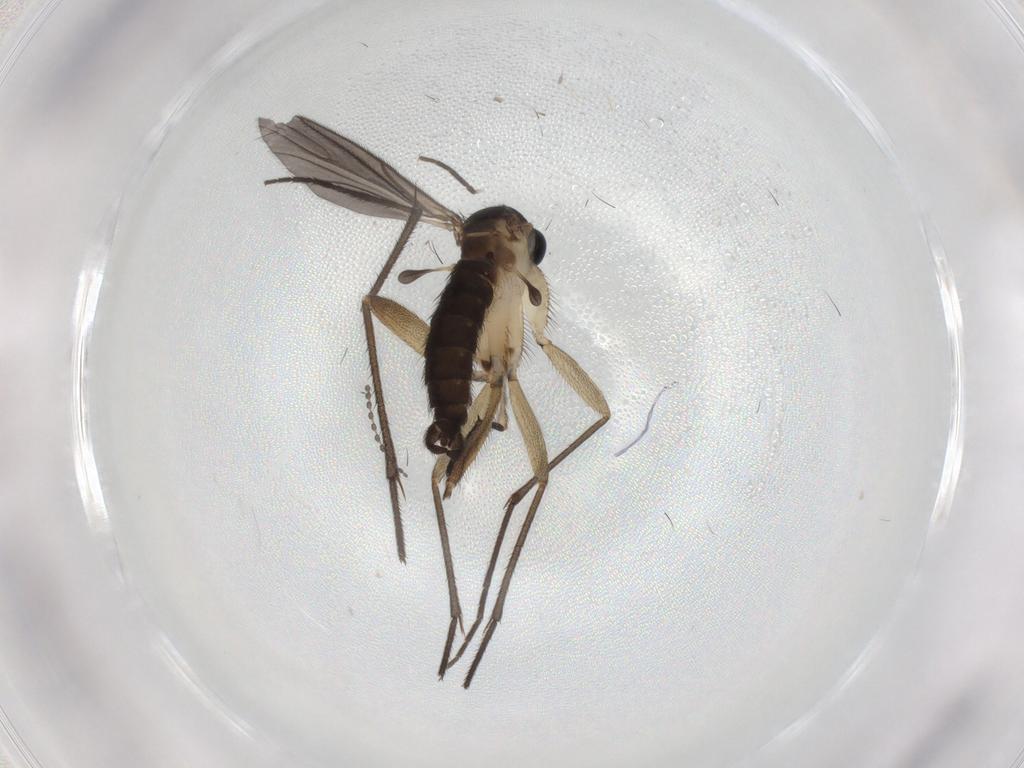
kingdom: Animalia
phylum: Arthropoda
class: Insecta
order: Diptera
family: Sciaridae
